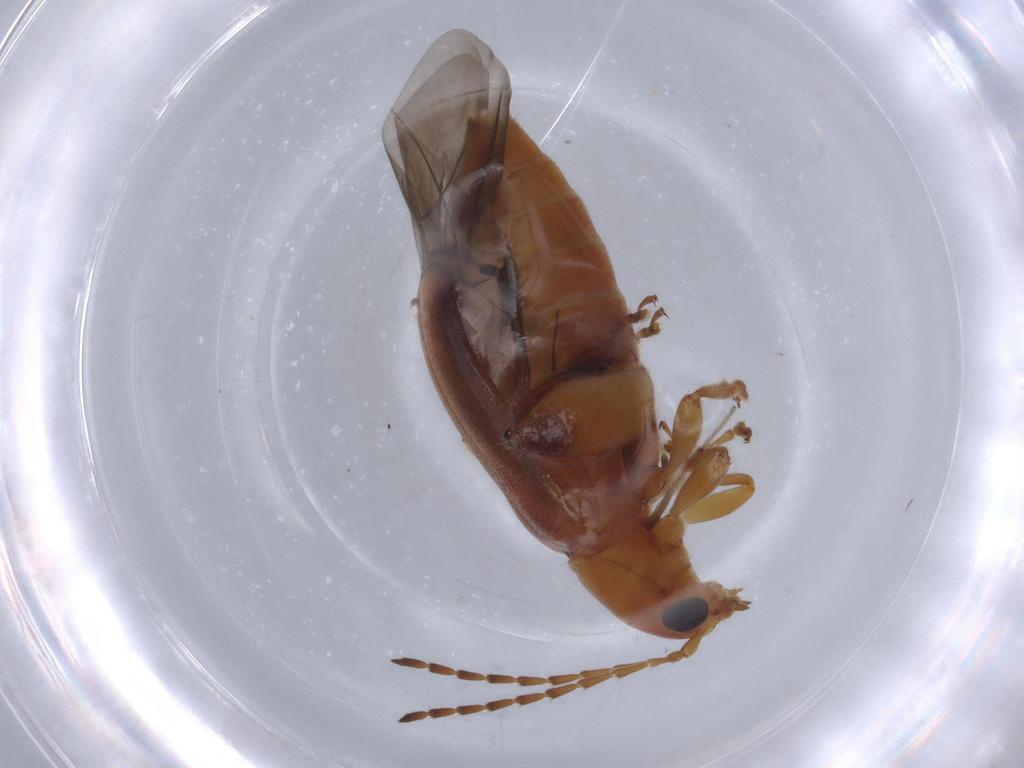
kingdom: Animalia
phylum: Arthropoda
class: Insecta
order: Coleoptera
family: Chrysomelidae
